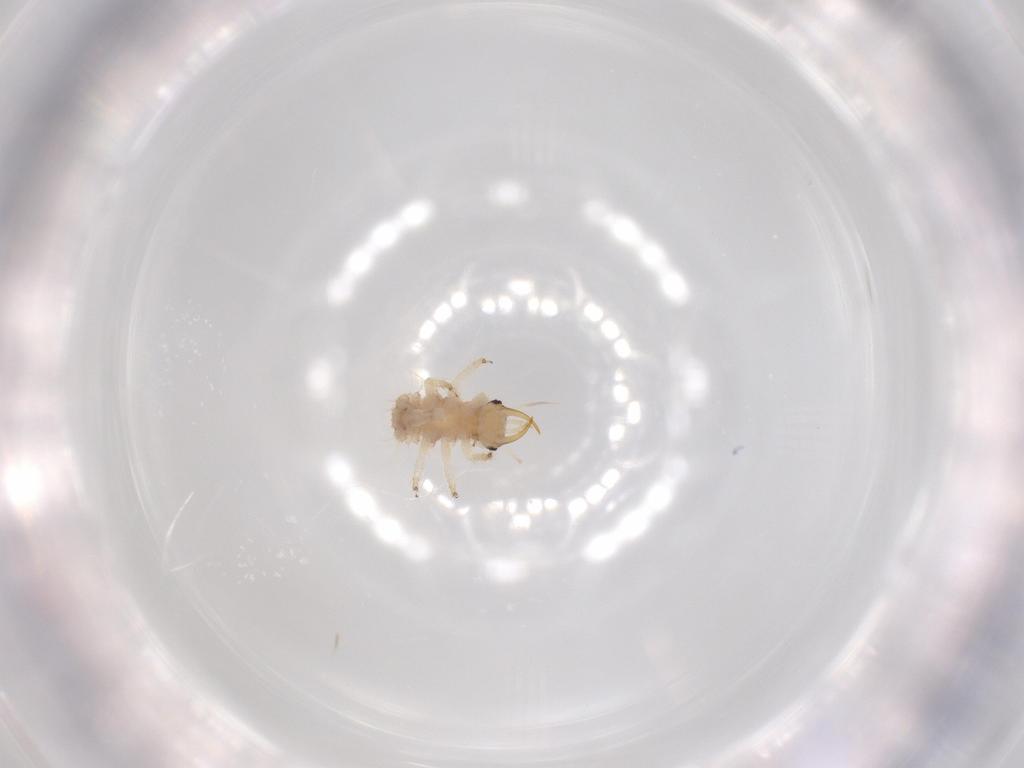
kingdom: Animalia
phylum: Arthropoda
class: Insecta
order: Neuroptera
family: Chrysopidae
